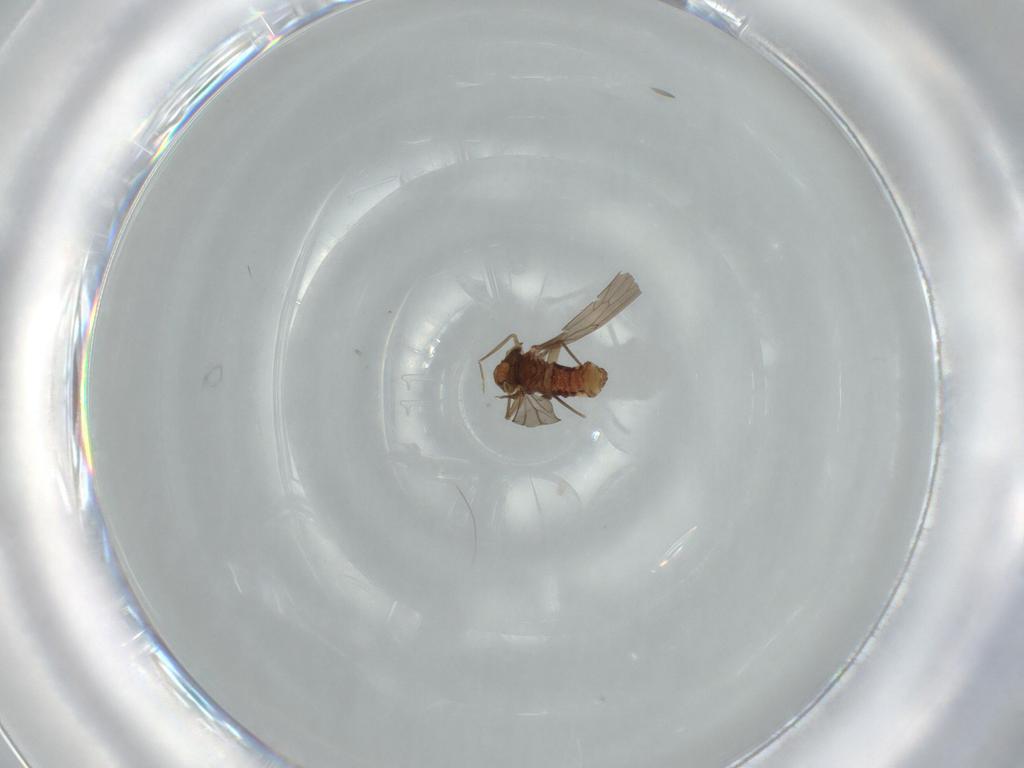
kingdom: Animalia
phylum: Arthropoda
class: Insecta
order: Psocodea
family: Lepidopsocidae
